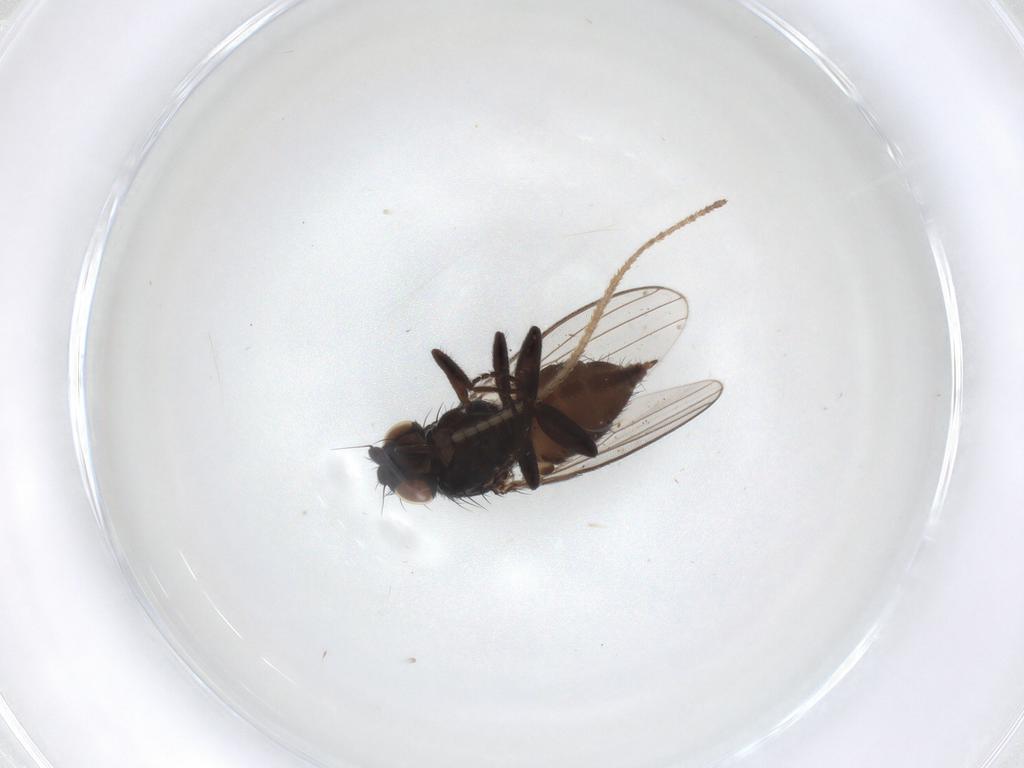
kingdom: Animalia
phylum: Arthropoda
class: Insecta
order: Diptera
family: Milichiidae
